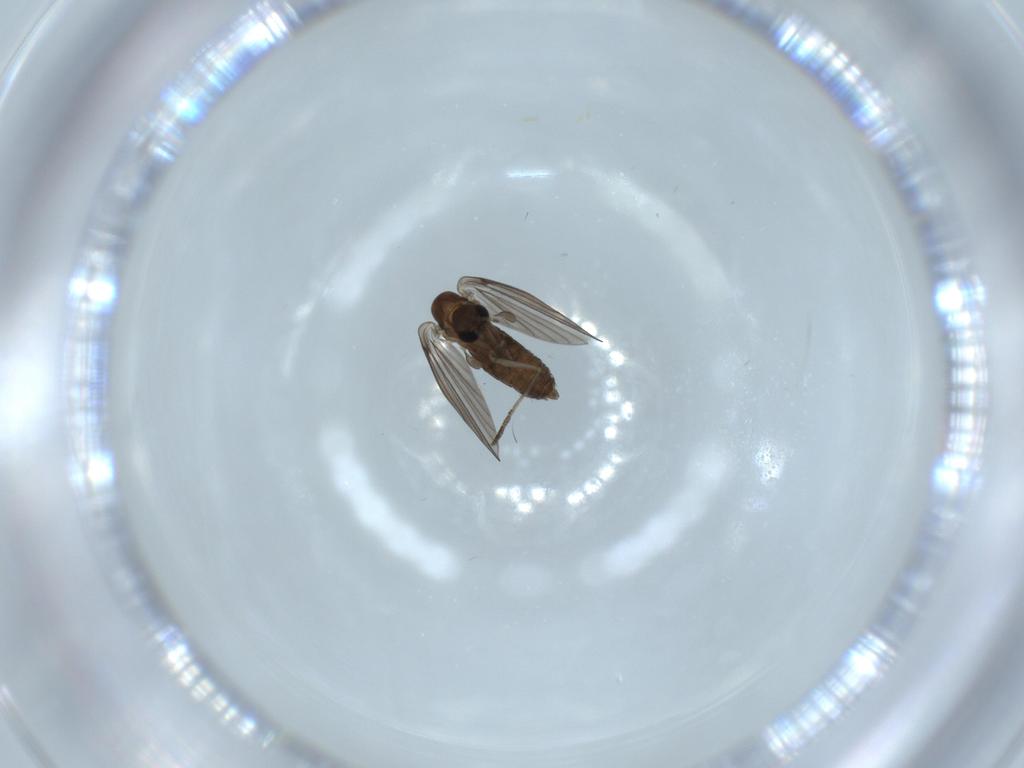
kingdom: Animalia
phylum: Arthropoda
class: Insecta
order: Diptera
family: Psychodidae
